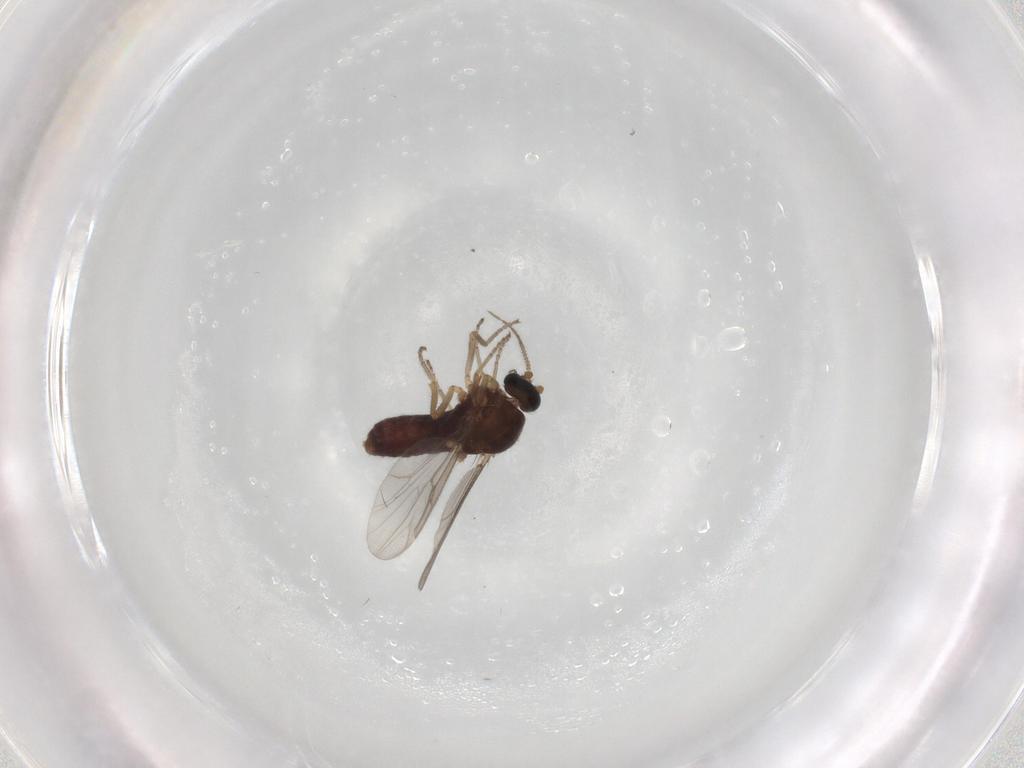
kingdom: Animalia
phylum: Arthropoda
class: Insecta
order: Diptera
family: Ceratopogonidae
